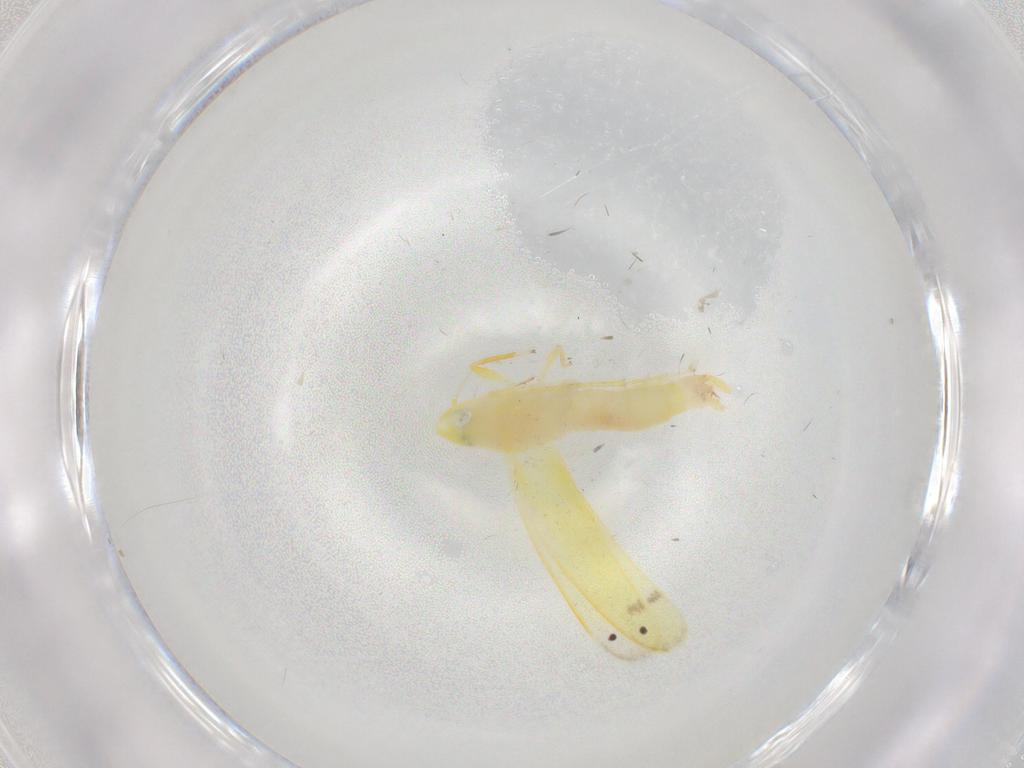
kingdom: Animalia
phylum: Arthropoda
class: Insecta
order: Hemiptera
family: Cicadellidae
